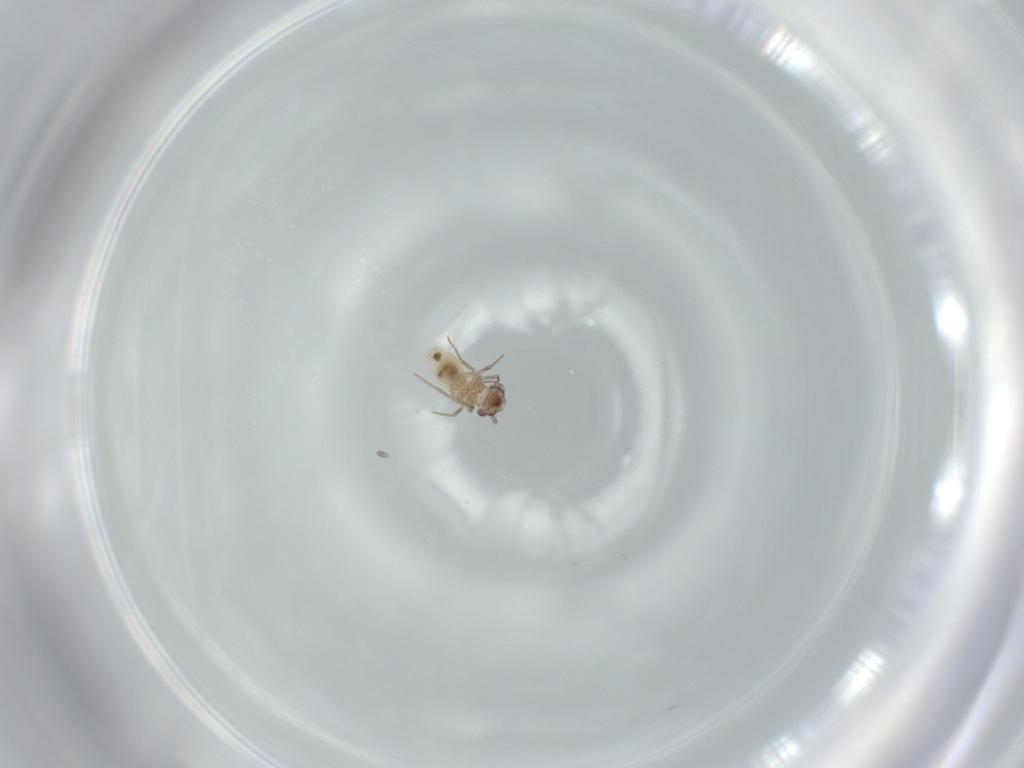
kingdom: Animalia
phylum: Arthropoda
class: Insecta
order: Psocodea
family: Lepidopsocidae
